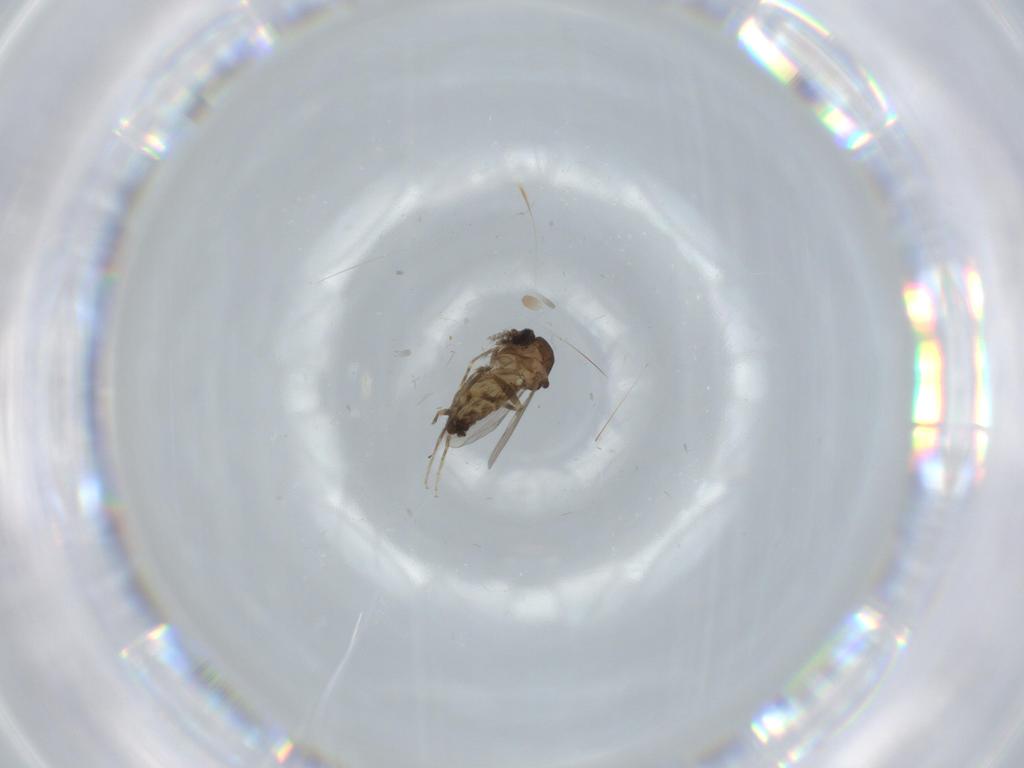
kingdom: Animalia
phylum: Arthropoda
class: Insecta
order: Diptera
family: Ceratopogonidae
